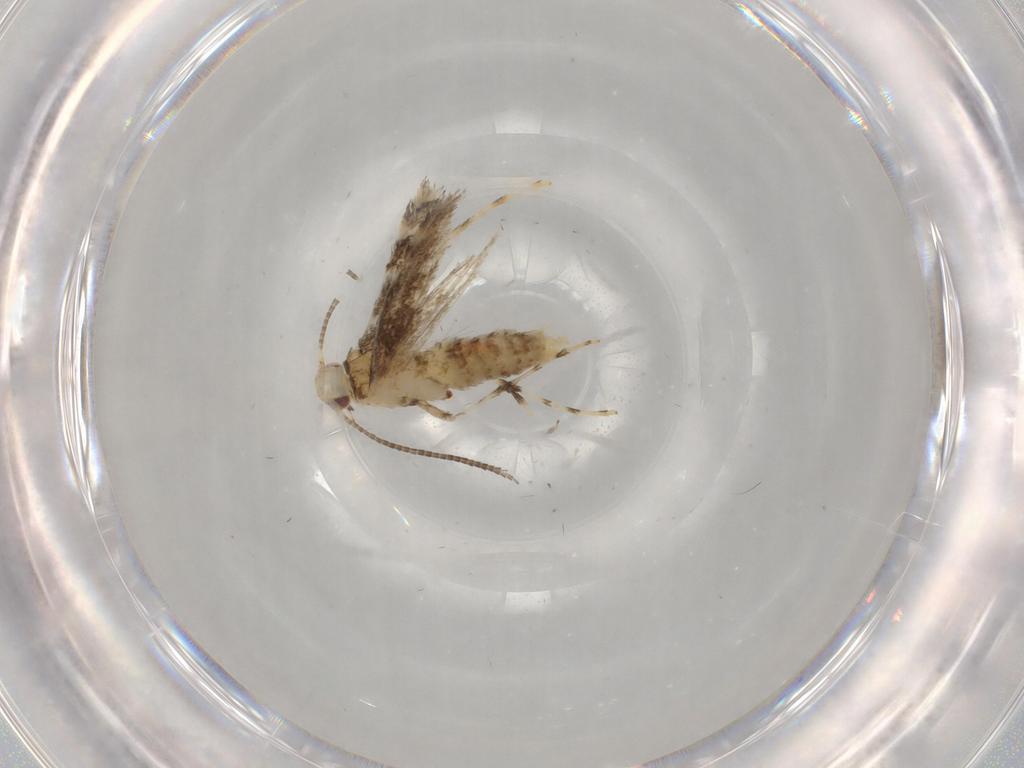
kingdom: Animalia
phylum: Arthropoda
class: Insecta
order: Lepidoptera
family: Gracillariidae
